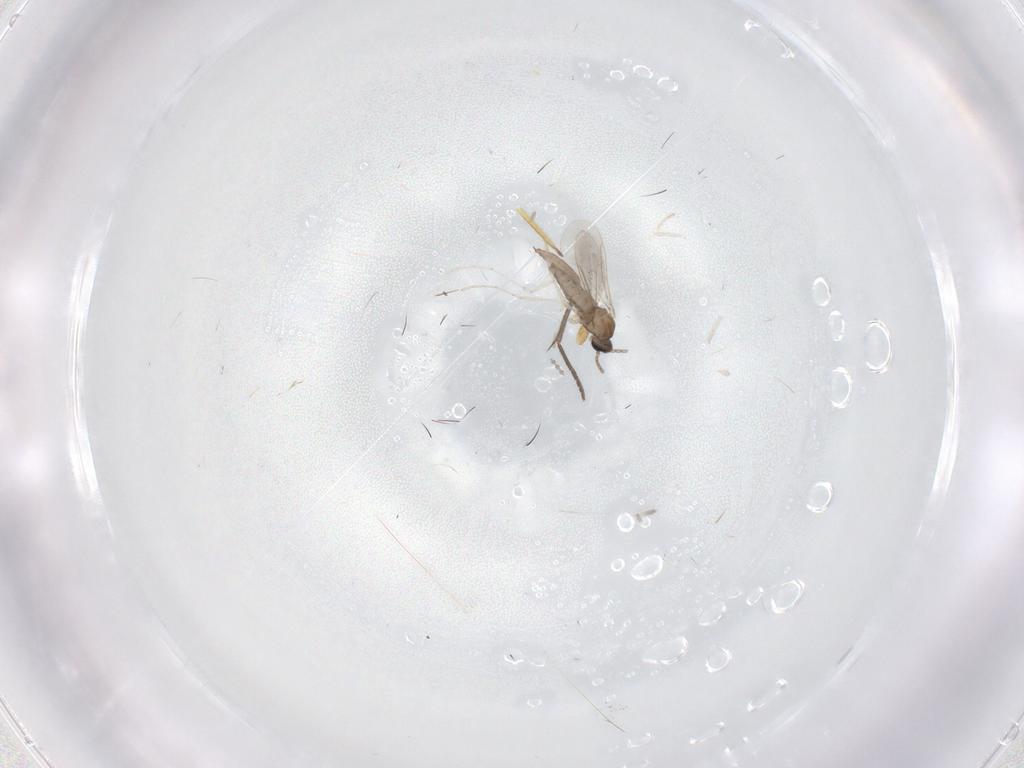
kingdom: Animalia
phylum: Arthropoda
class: Insecta
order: Diptera
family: Sciaridae
